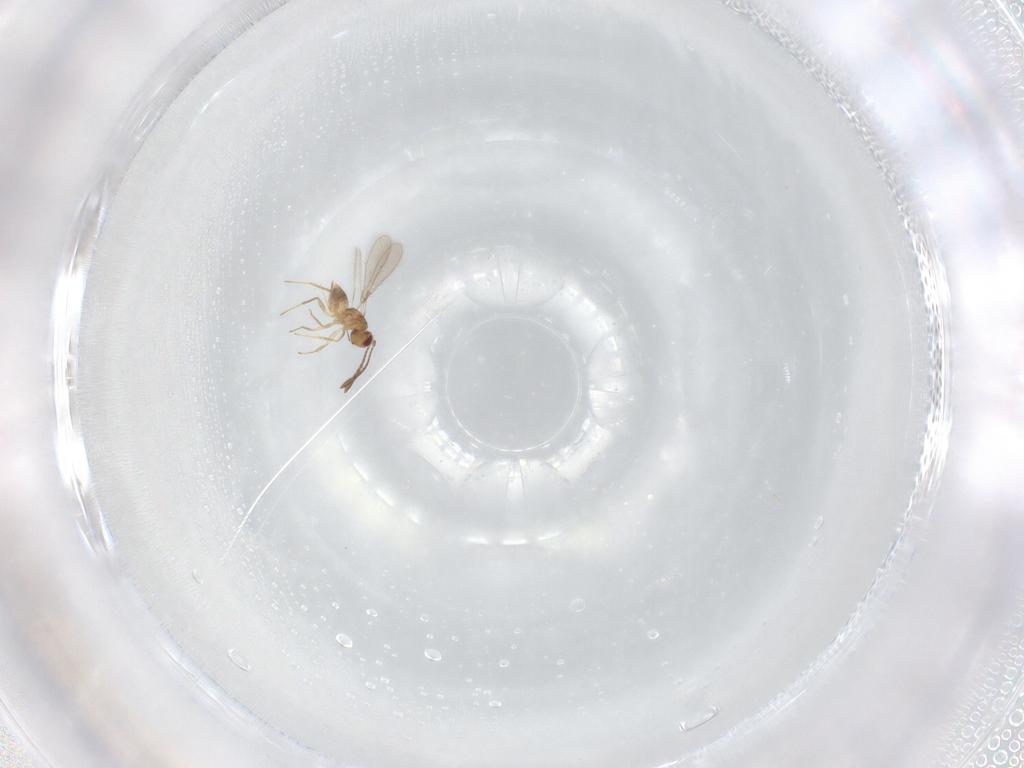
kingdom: Animalia
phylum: Arthropoda
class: Insecta
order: Hymenoptera
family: Mymaridae
